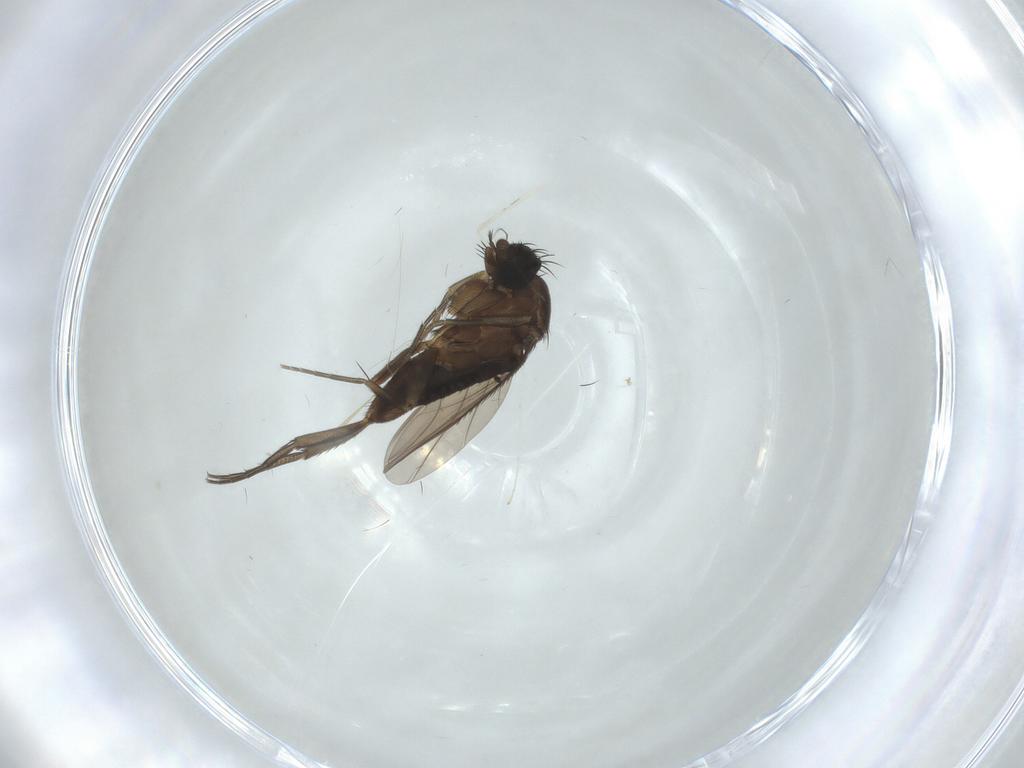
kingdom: Animalia
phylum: Arthropoda
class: Insecta
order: Diptera
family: Phoridae
